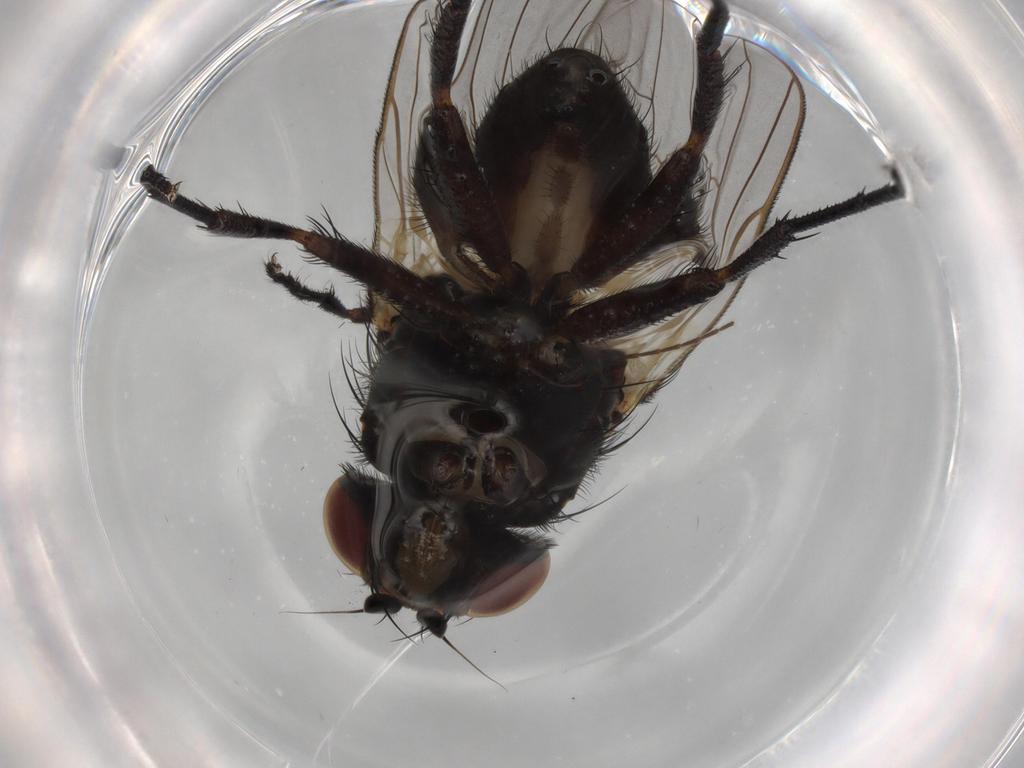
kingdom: Animalia
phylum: Arthropoda
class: Insecta
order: Diptera
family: Fannia
